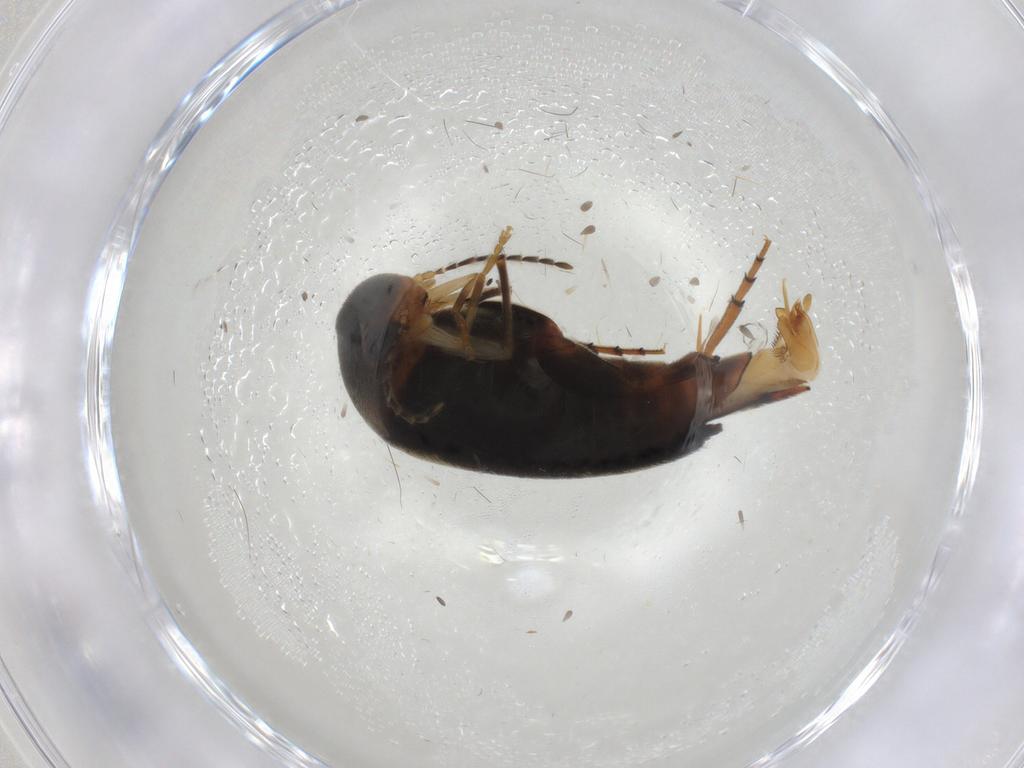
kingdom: Animalia
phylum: Arthropoda
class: Insecta
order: Coleoptera
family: Mordellidae
